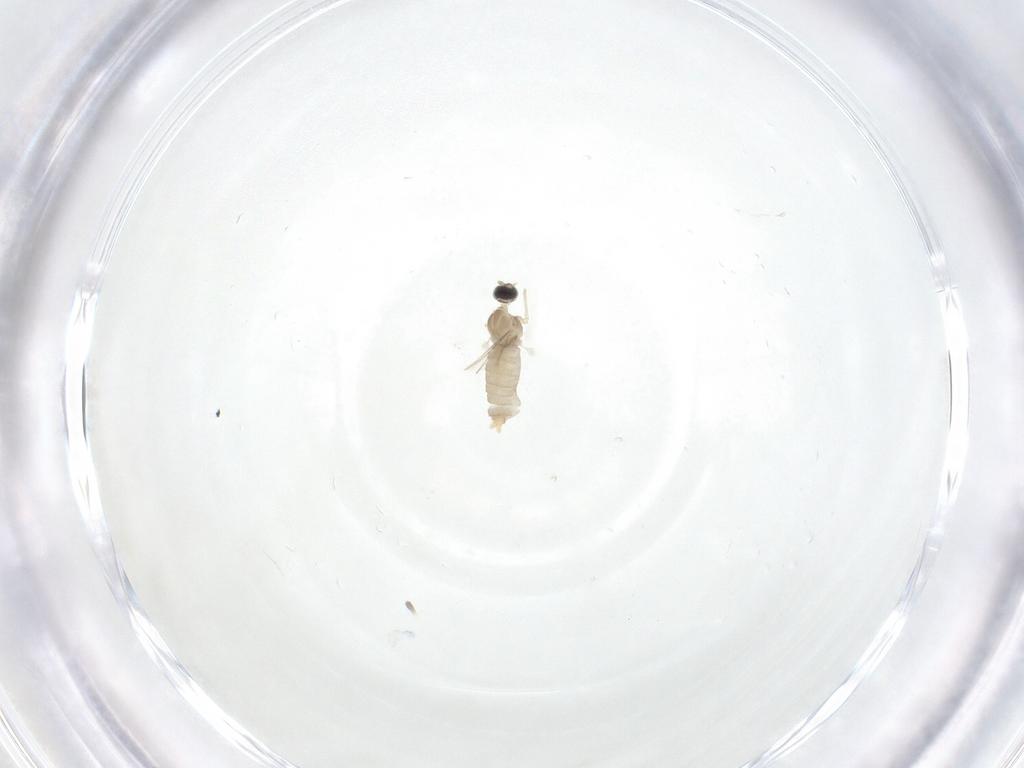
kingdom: Animalia
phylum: Arthropoda
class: Insecta
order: Diptera
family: Cecidomyiidae
